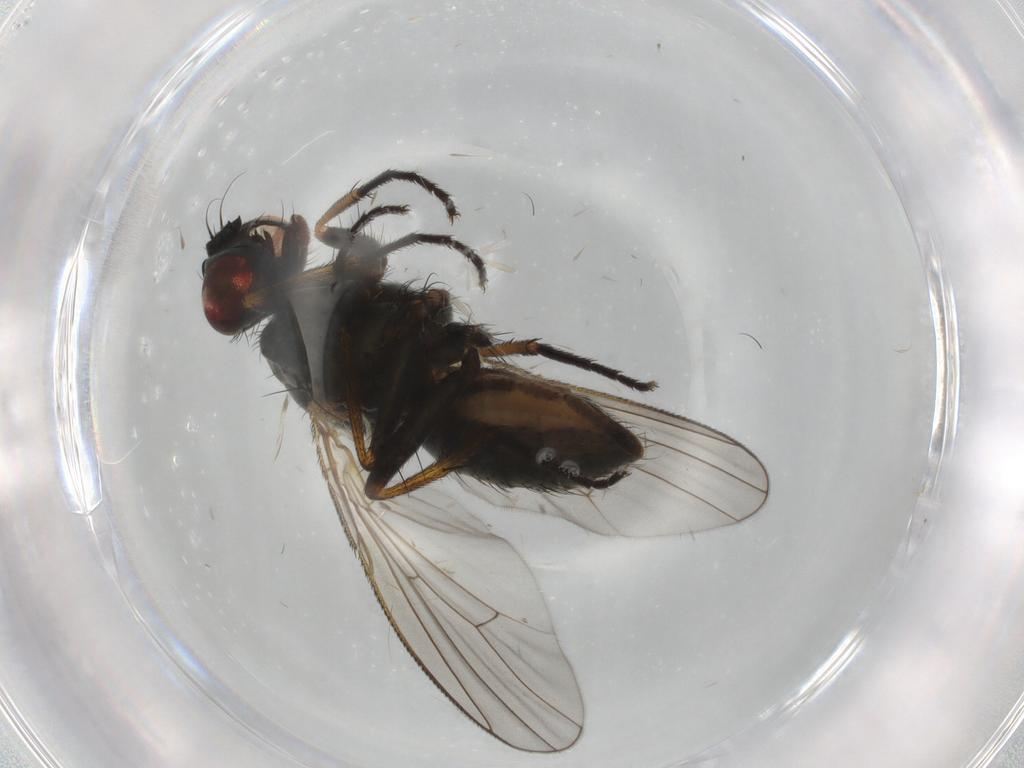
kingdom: Animalia
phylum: Arthropoda
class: Insecta
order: Diptera
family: Muscidae
